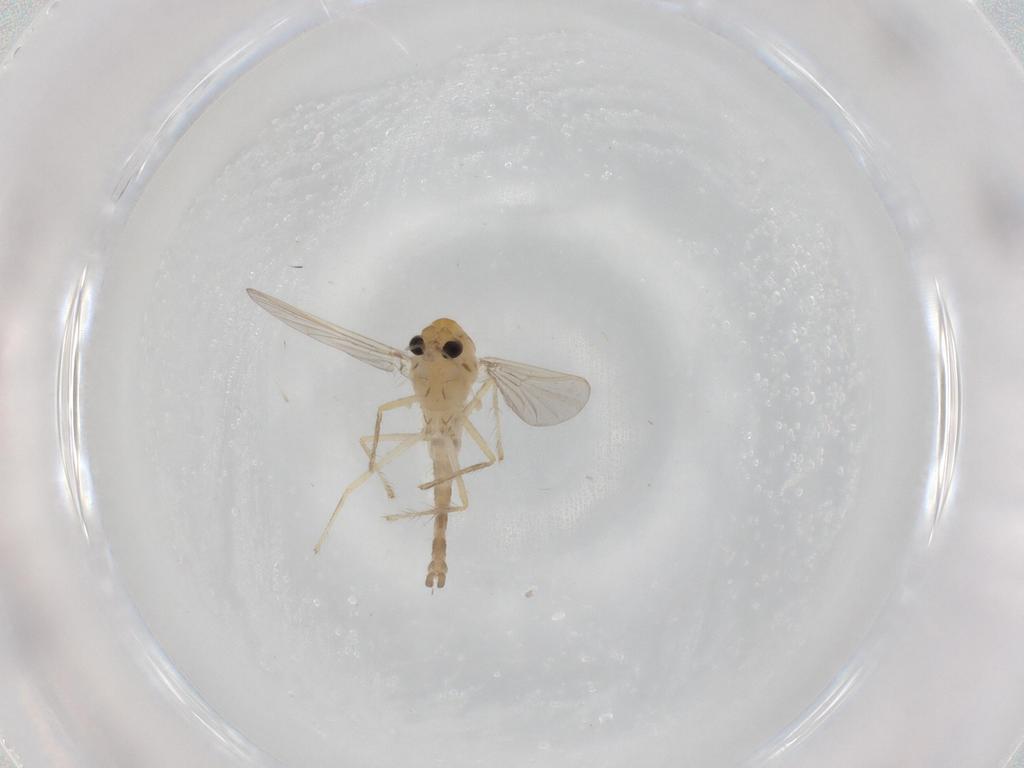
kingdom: Animalia
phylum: Arthropoda
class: Insecta
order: Diptera
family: Chironomidae
